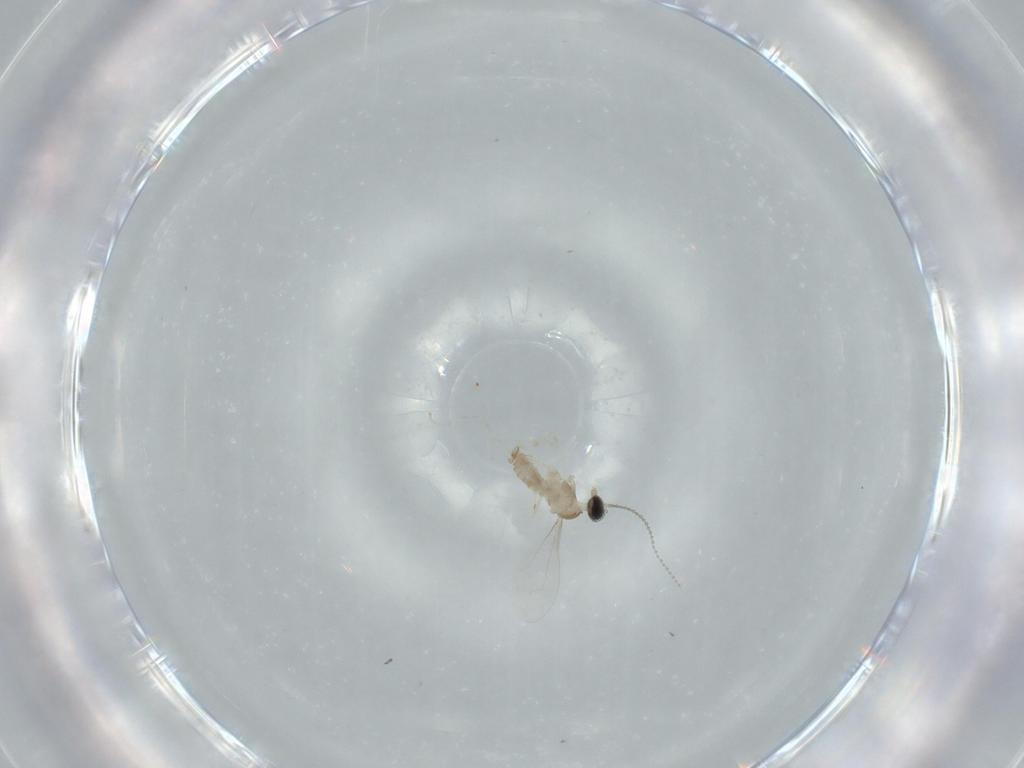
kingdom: Animalia
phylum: Arthropoda
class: Insecta
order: Diptera
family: Cecidomyiidae
